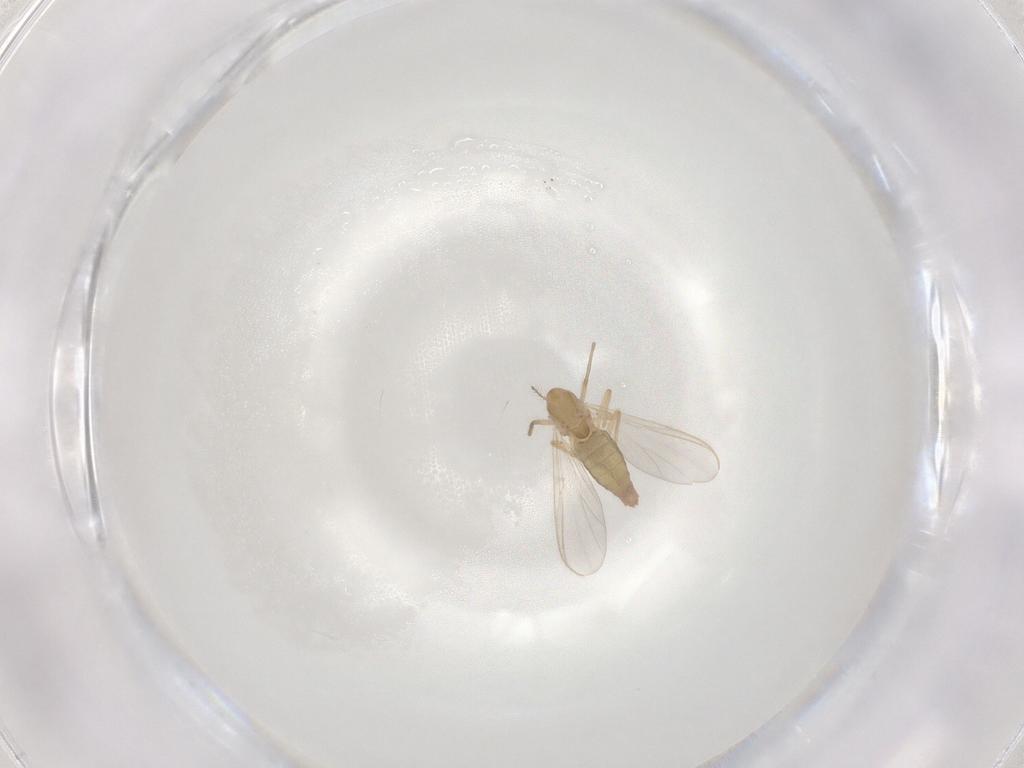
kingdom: Animalia
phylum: Arthropoda
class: Insecta
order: Diptera
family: Chironomidae
